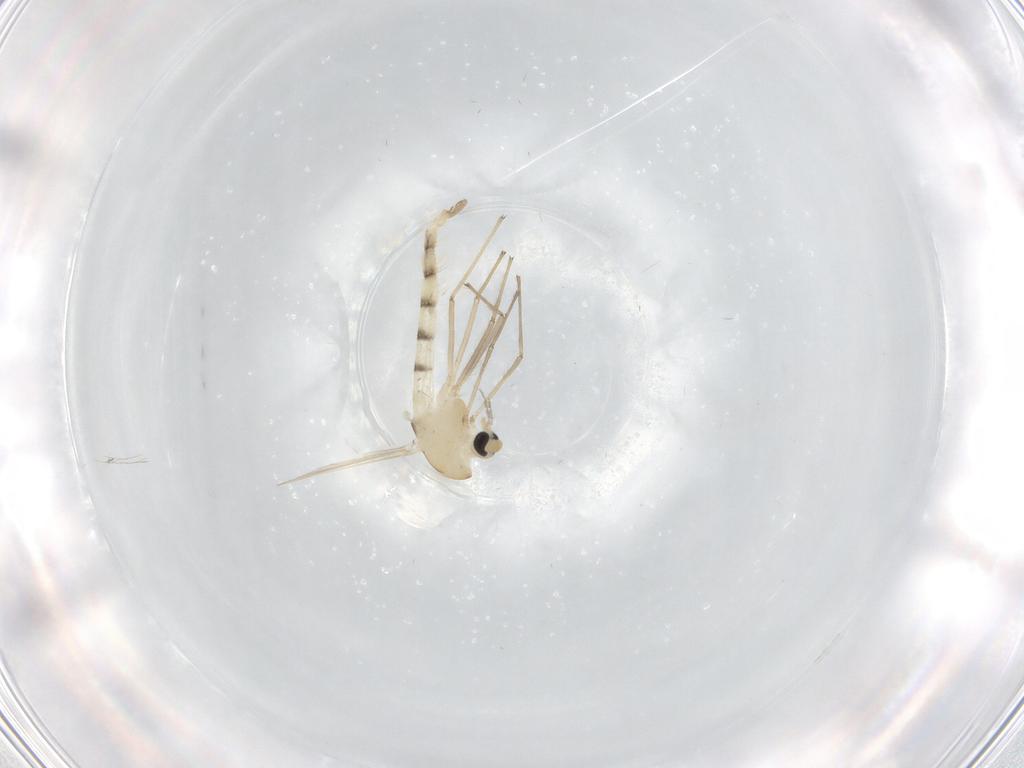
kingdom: Animalia
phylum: Arthropoda
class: Insecta
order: Diptera
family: Chironomidae
